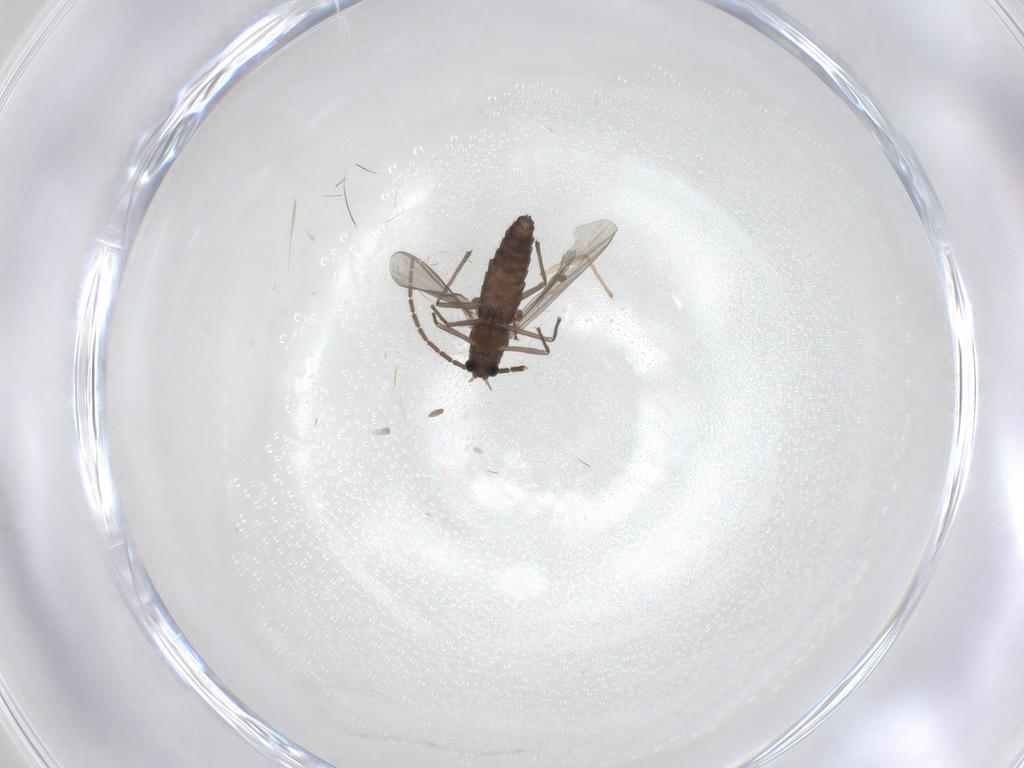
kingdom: Animalia
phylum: Arthropoda
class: Insecta
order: Diptera
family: Chironomidae
